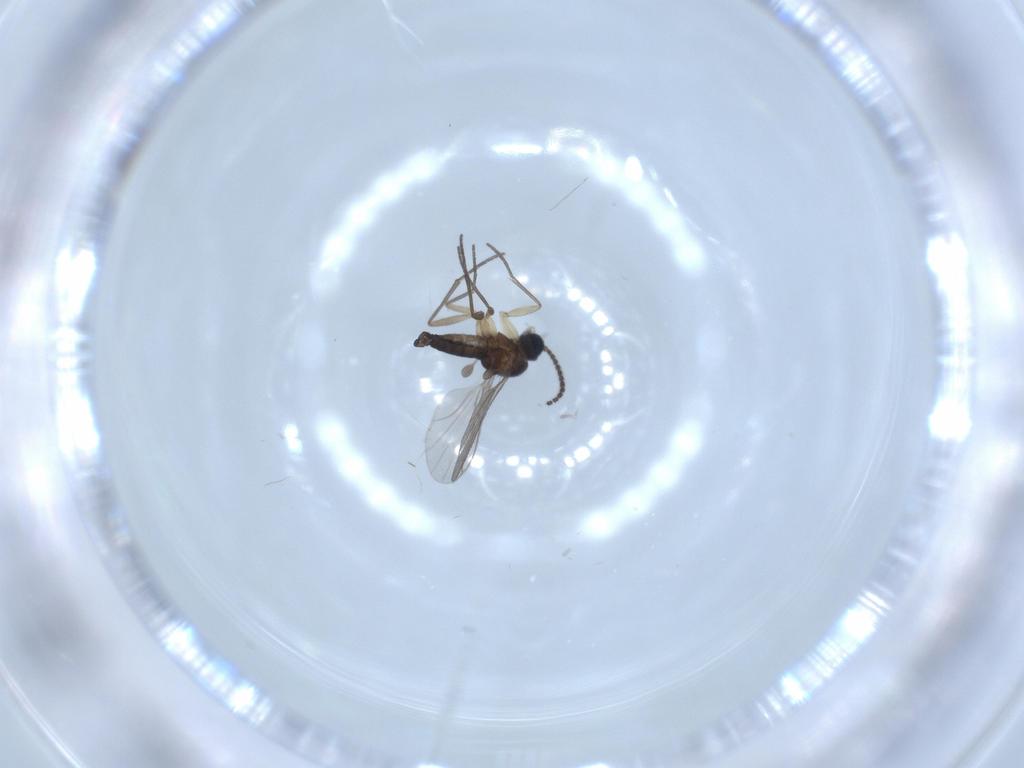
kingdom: Animalia
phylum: Arthropoda
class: Insecta
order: Diptera
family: Sciaridae
